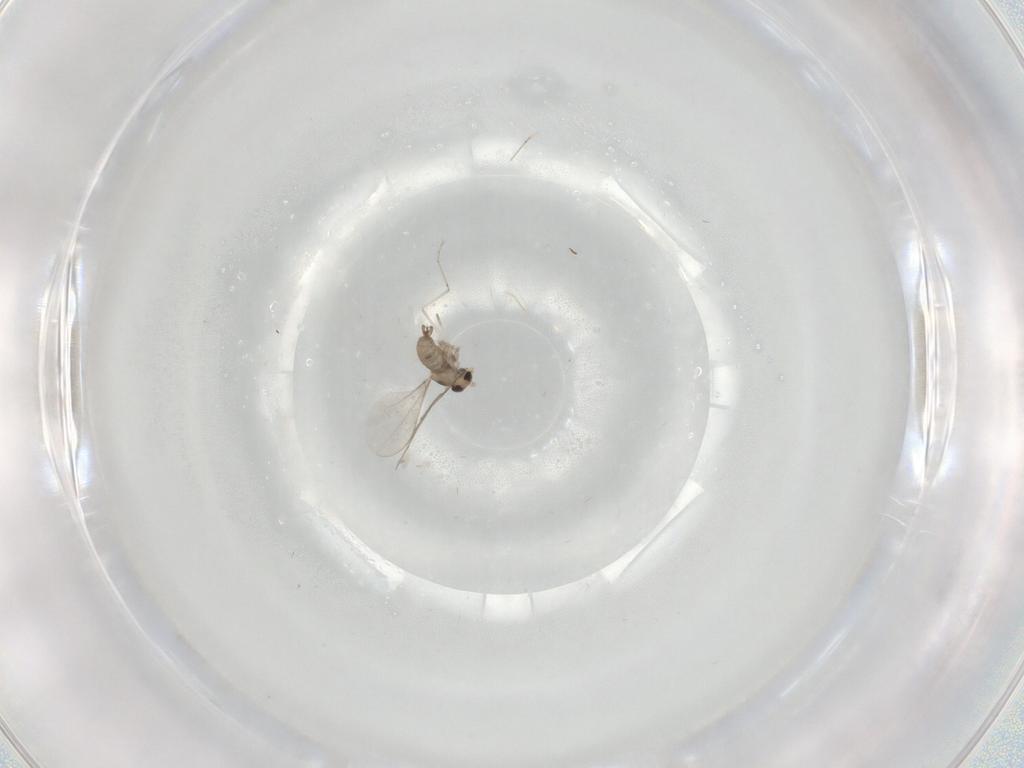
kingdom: Animalia
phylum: Arthropoda
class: Insecta
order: Diptera
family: Cecidomyiidae
